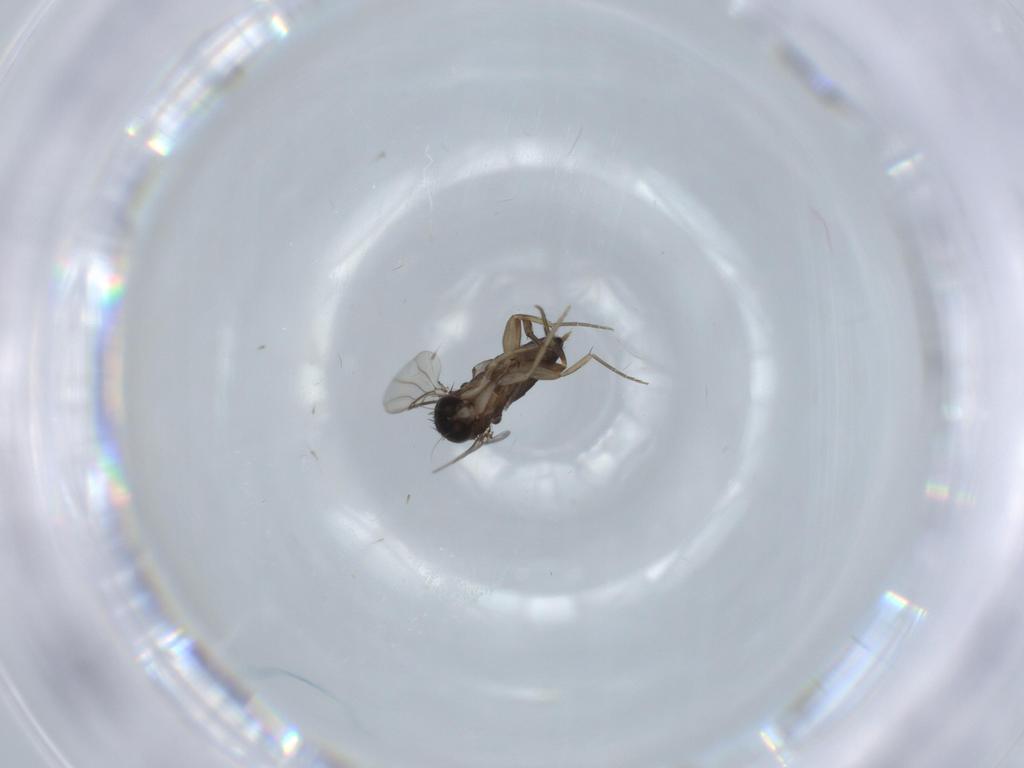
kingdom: Animalia
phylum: Arthropoda
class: Insecta
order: Diptera
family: Phoridae
